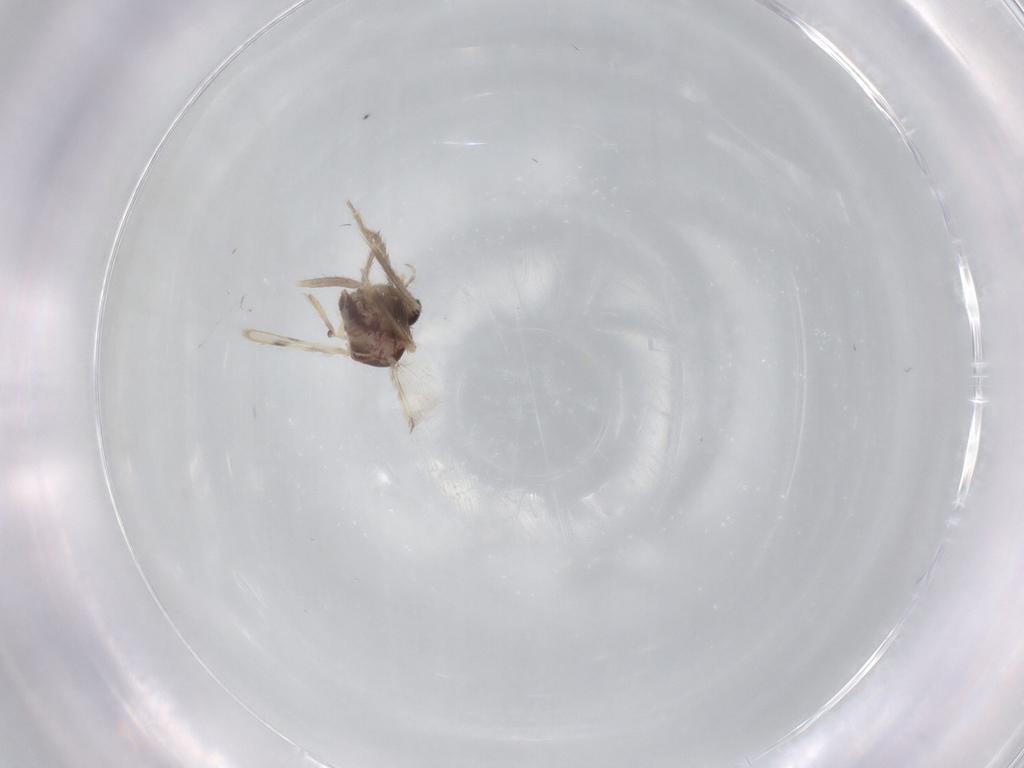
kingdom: Animalia
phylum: Arthropoda
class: Insecta
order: Diptera
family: Corethrellidae
